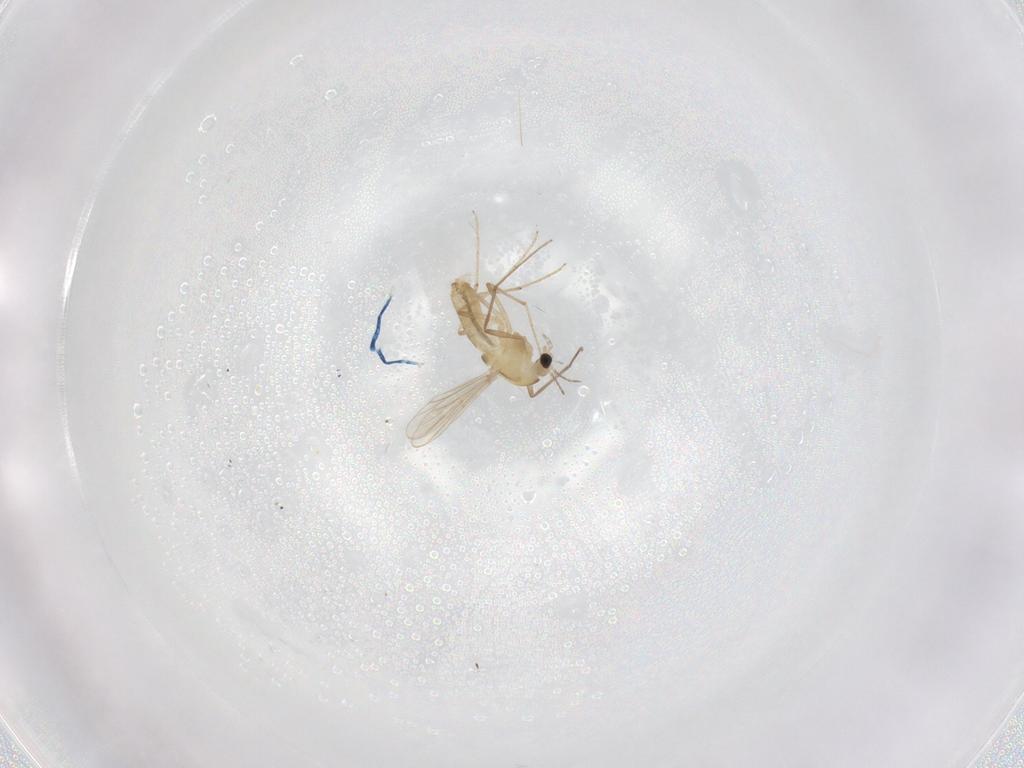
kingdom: Animalia
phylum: Arthropoda
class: Insecta
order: Diptera
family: Chironomidae
